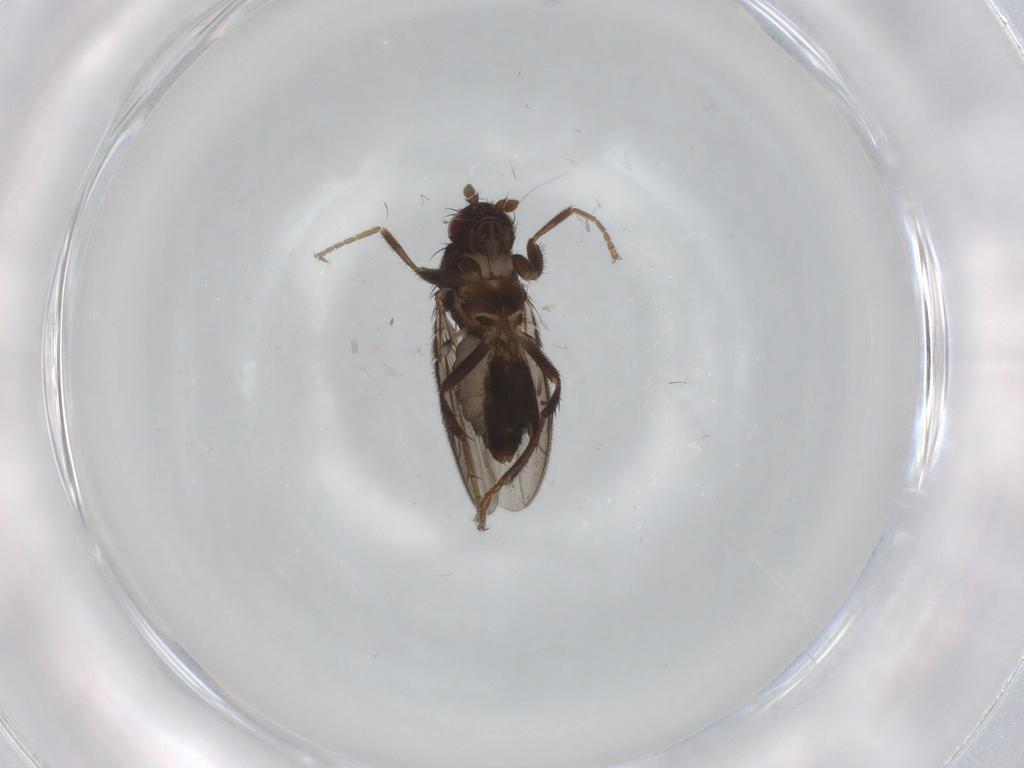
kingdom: Animalia
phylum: Arthropoda
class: Insecta
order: Diptera
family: Sphaeroceridae
